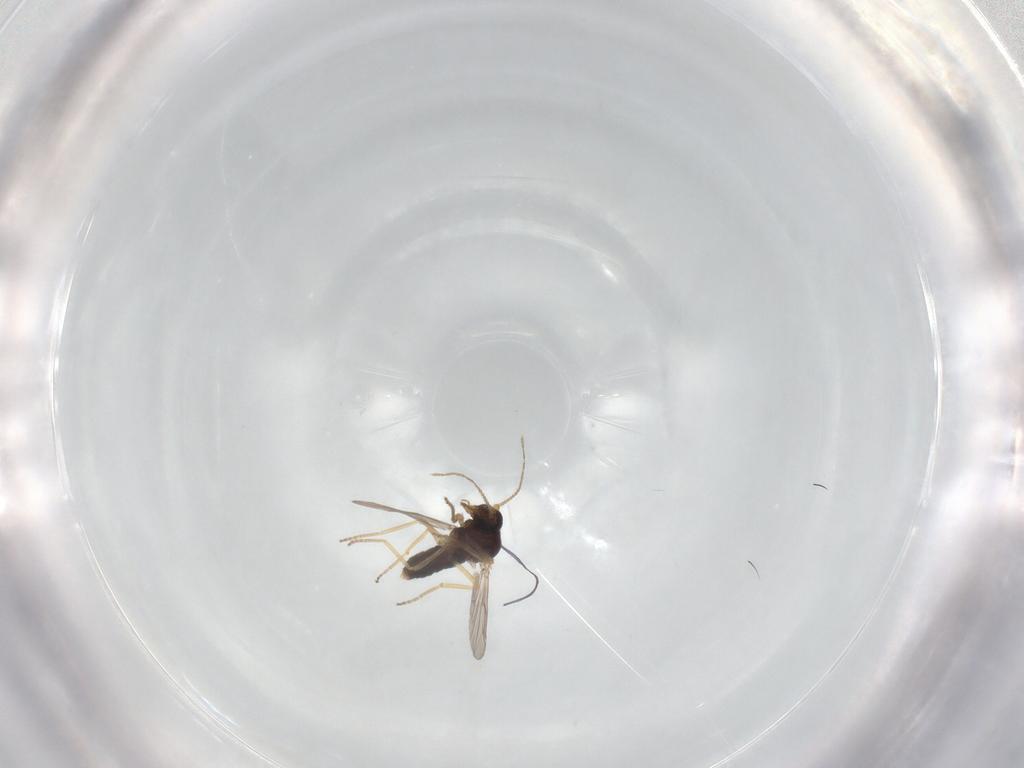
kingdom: Animalia
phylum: Arthropoda
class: Insecta
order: Diptera
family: Ceratopogonidae
